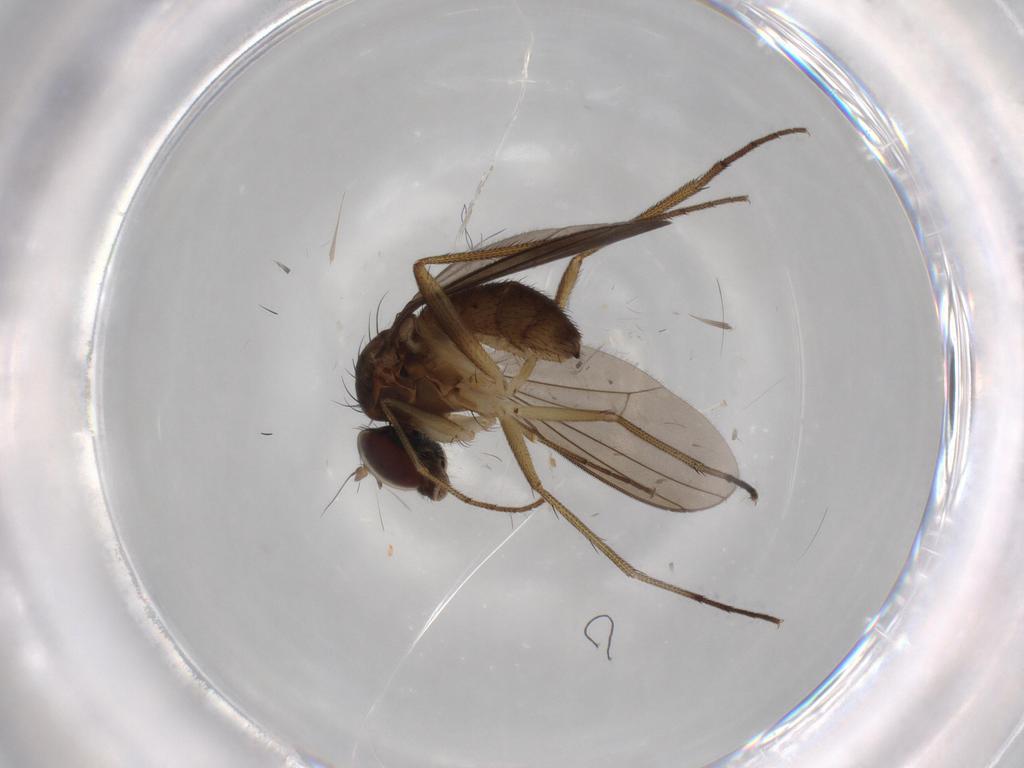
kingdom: Animalia
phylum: Arthropoda
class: Insecta
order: Diptera
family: Dolichopodidae
